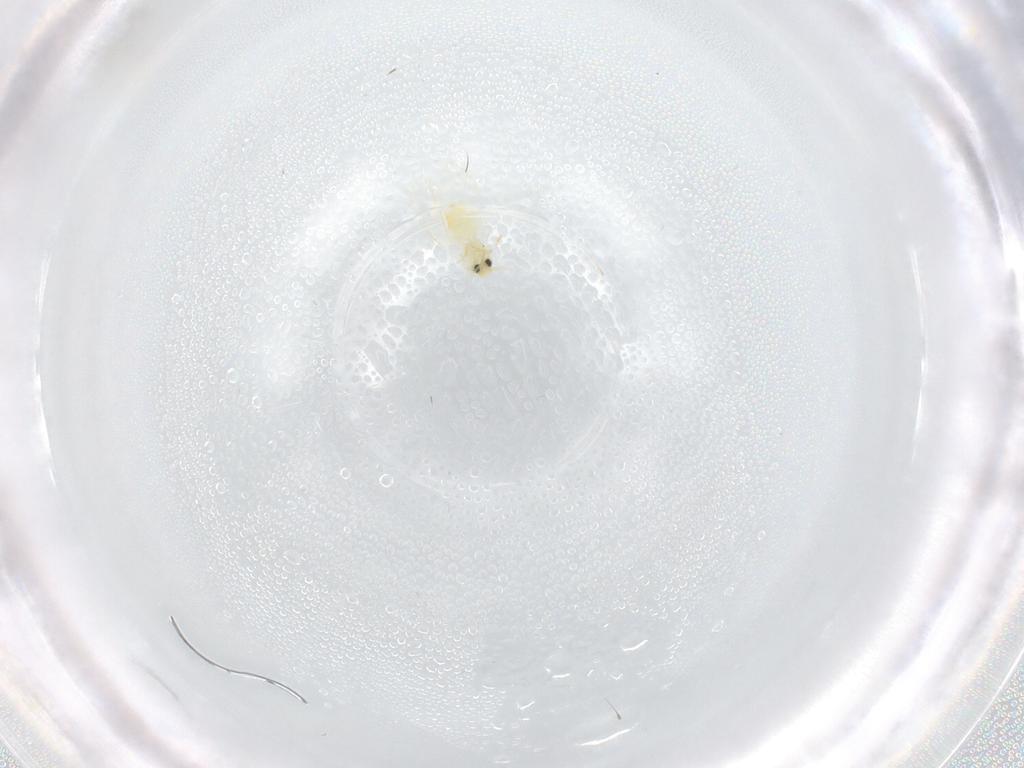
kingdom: Animalia
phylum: Arthropoda
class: Insecta
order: Hemiptera
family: Aleyrodidae
